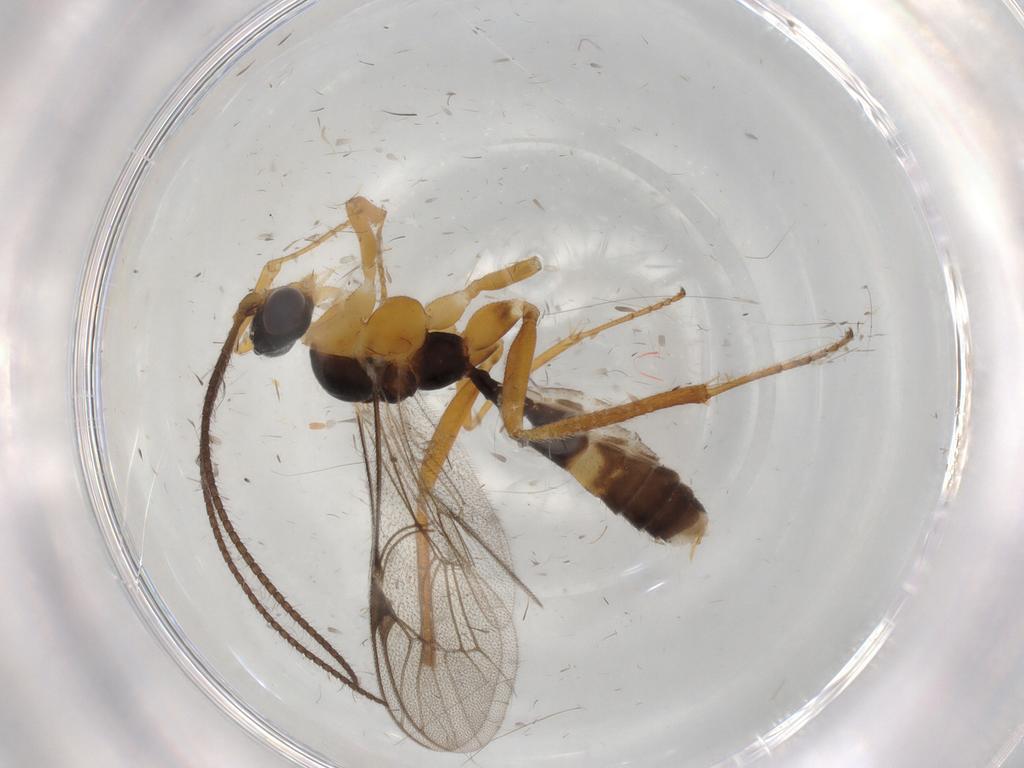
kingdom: Animalia
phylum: Arthropoda
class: Insecta
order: Hymenoptera
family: Ichneumonidae
